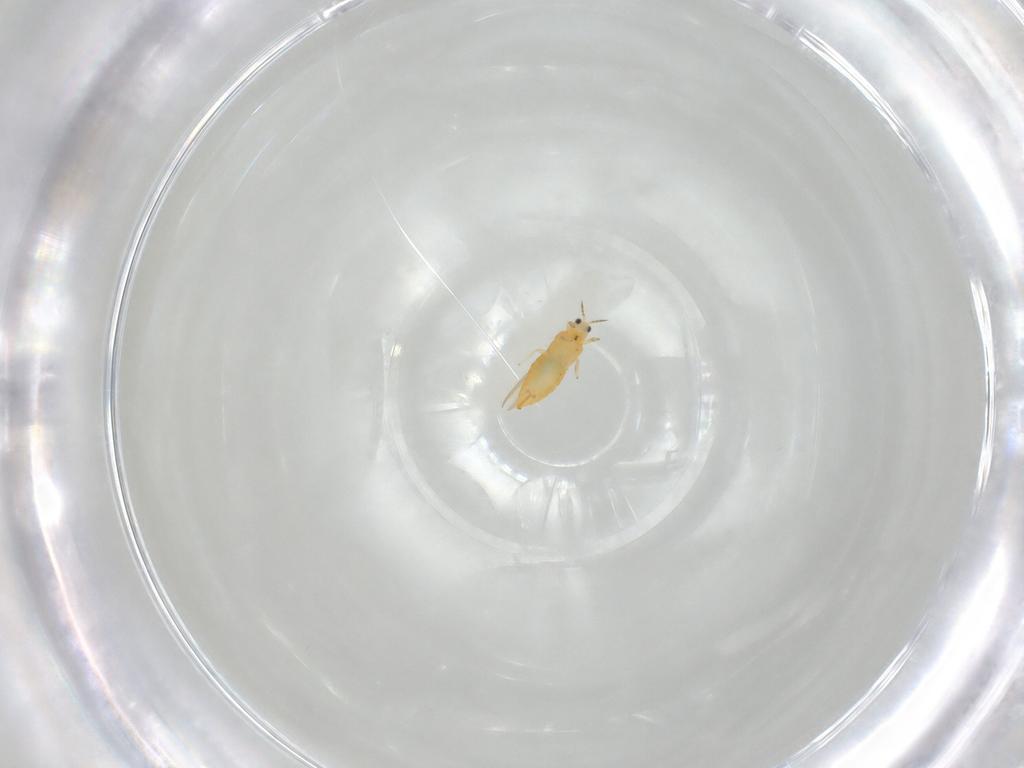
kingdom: Animalia
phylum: Arthropoda
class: Insecta
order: Thysanoptera
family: Thripidae
